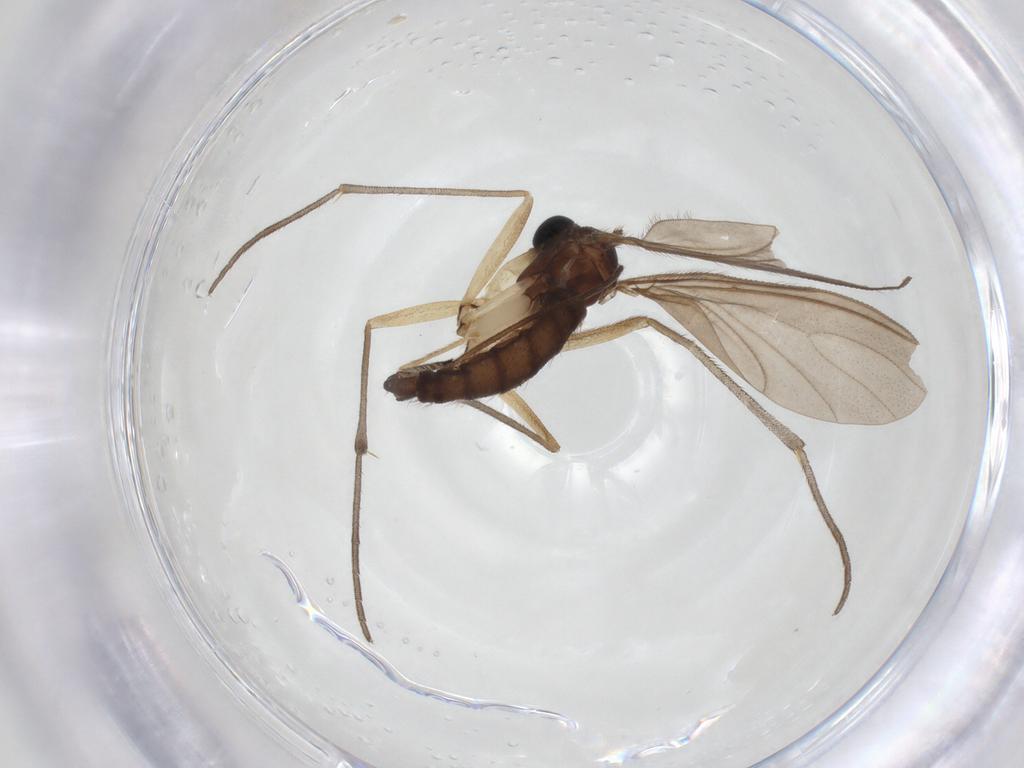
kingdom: Animalia
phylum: Arthropoda
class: Insecta
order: Diptera
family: Sciaridae
